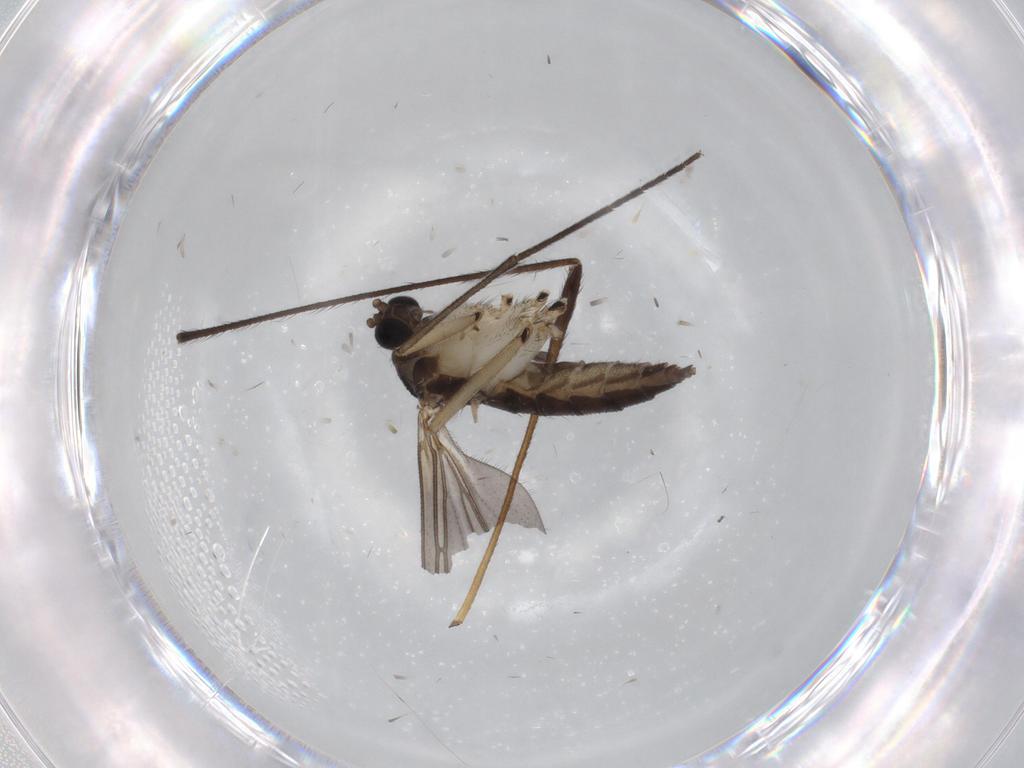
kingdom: Animalia
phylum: Arthropoda
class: Insecta
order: Diptera
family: Sciaridae
